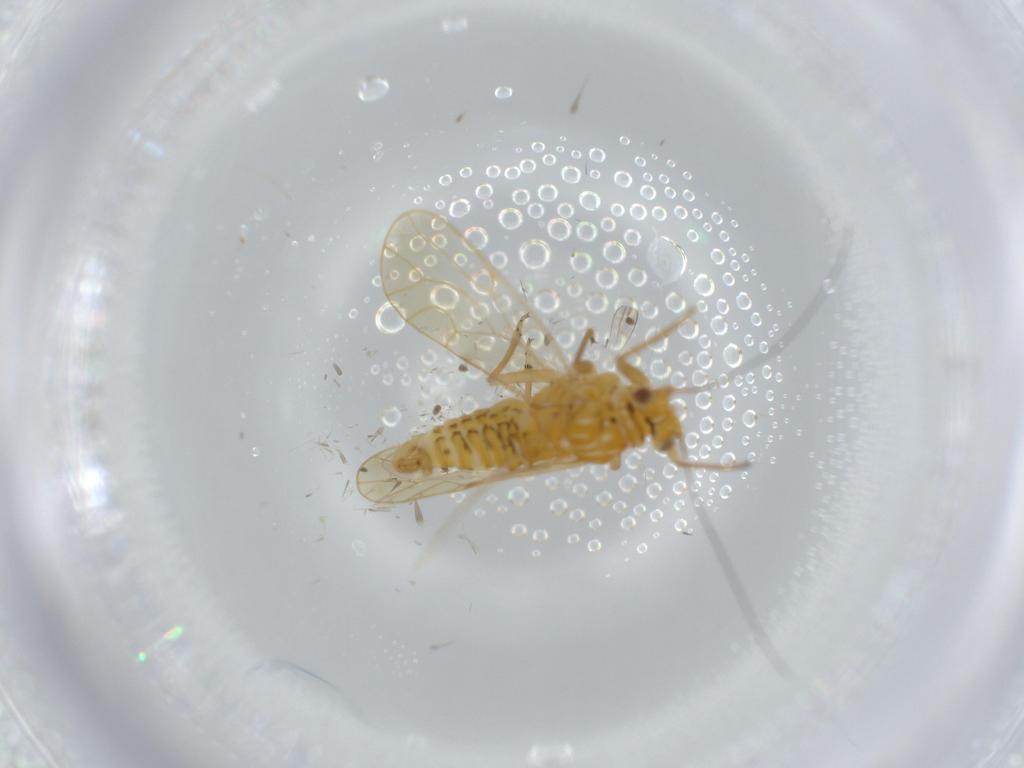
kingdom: Animalia
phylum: Arthropoda
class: Insecta
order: Hemiptera
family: Psyllidae
